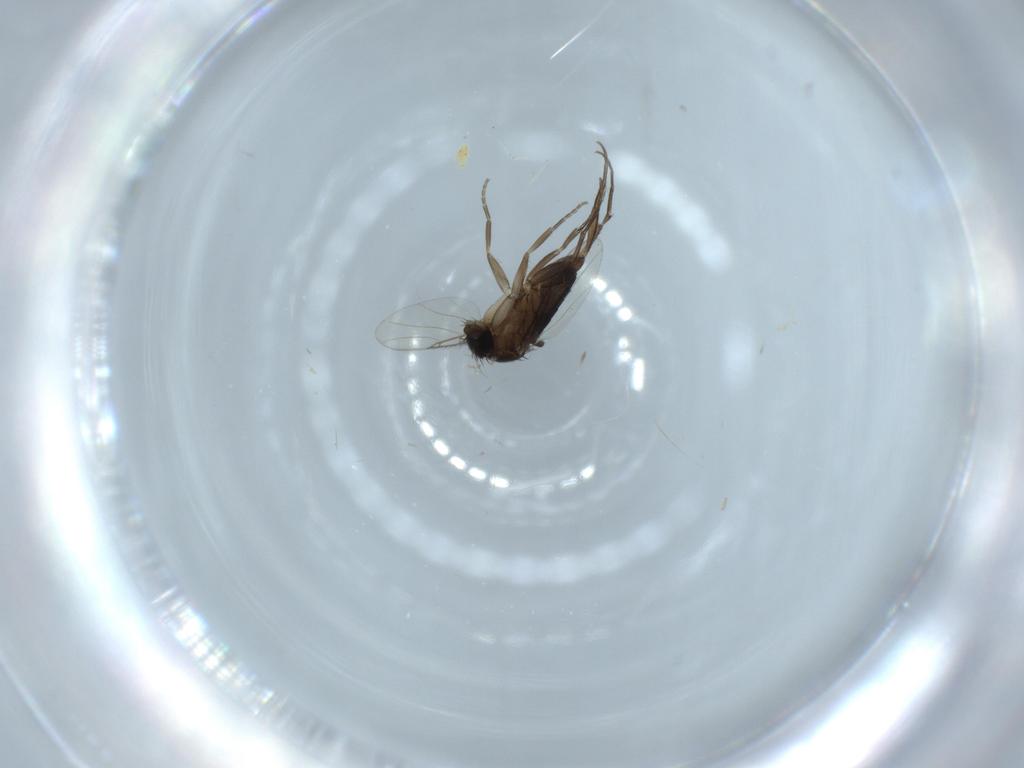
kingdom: Animalia
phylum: Arthropoda
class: Insecta
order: Diptera
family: Phoridae
